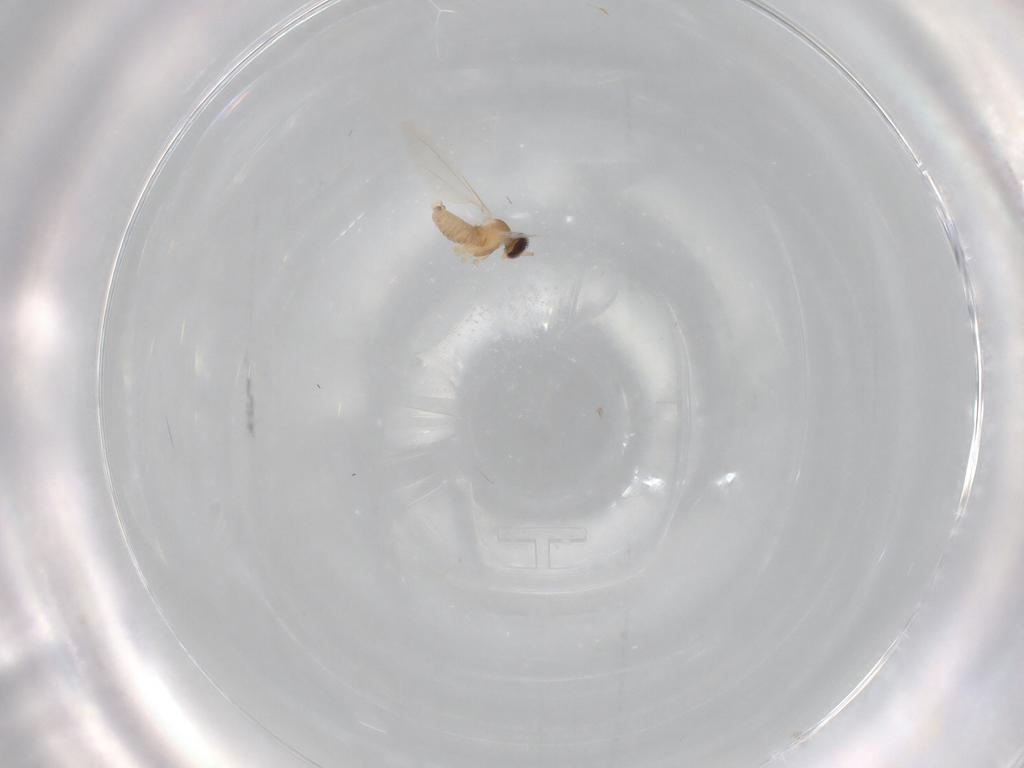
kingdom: Animalia
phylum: Arthropoda
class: Insecta
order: Diptera
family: Cecidomyiidae
